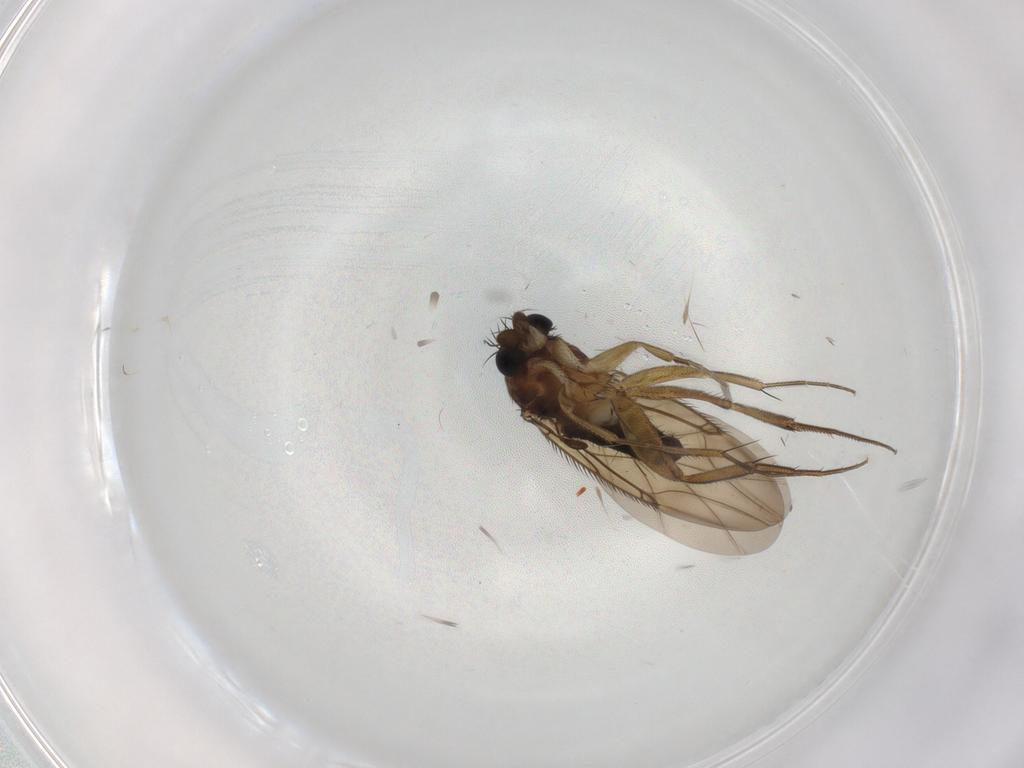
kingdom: Animalia
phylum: Arthropoda
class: Insecta
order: Diptera
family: Phoridae
